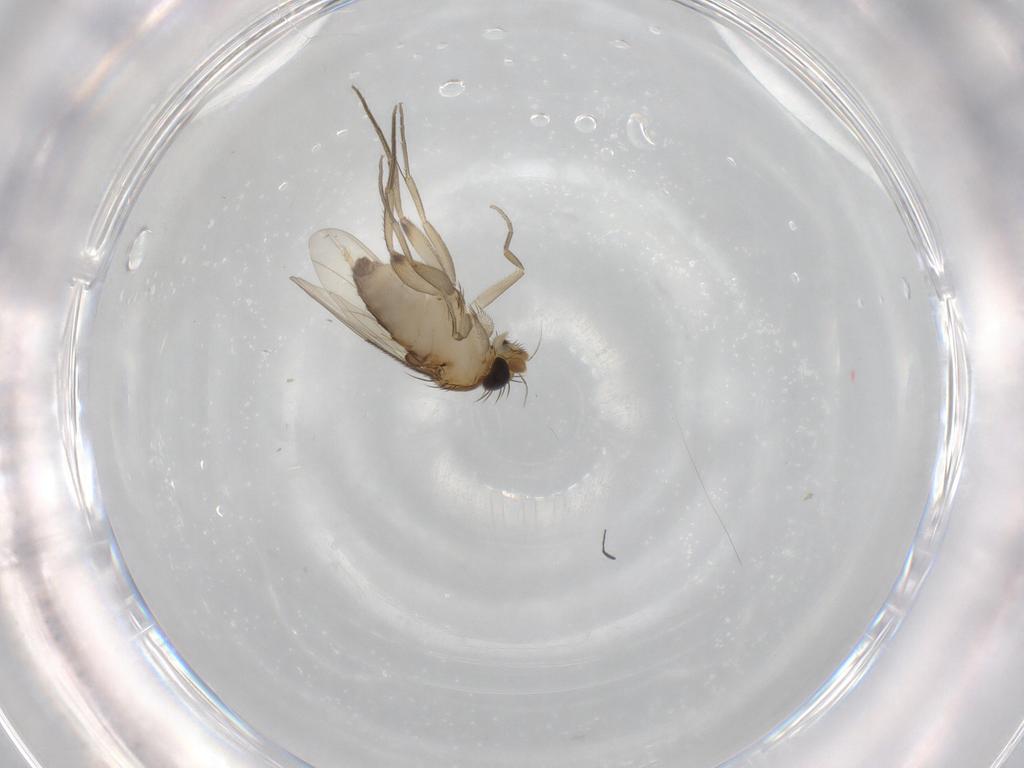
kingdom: Animalia
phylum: Arthropoda
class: Insecta
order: Diptera
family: Phoridae
